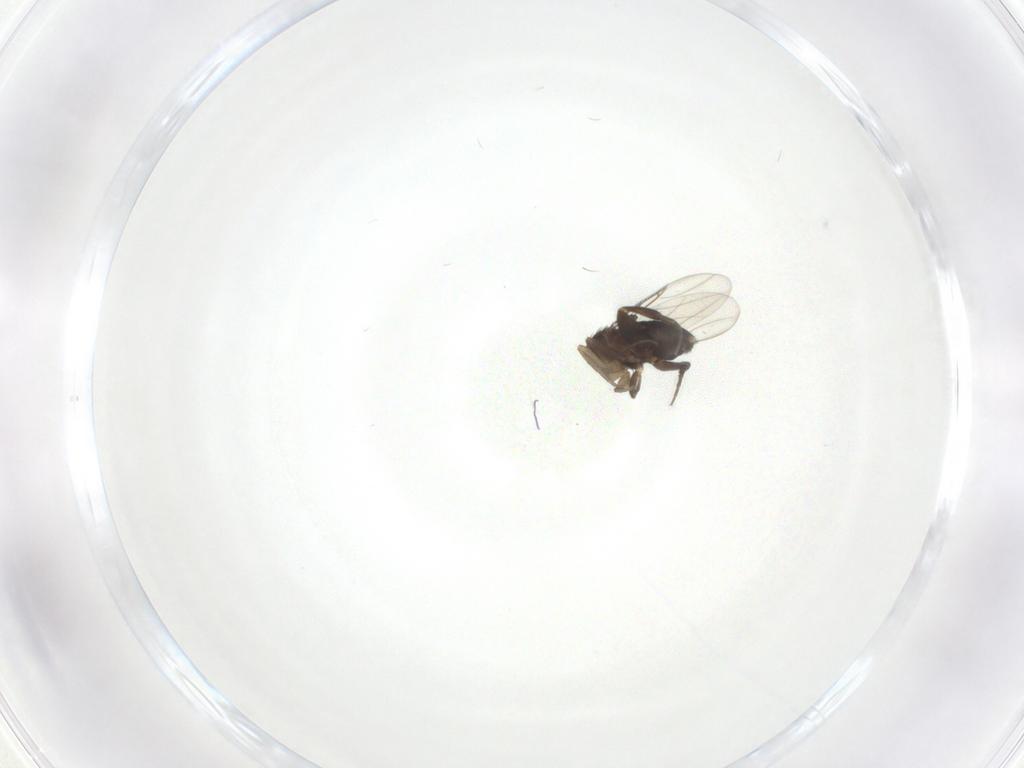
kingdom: Animalia
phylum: Arthropoda
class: Insecta
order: Diptera
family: Phoridae
